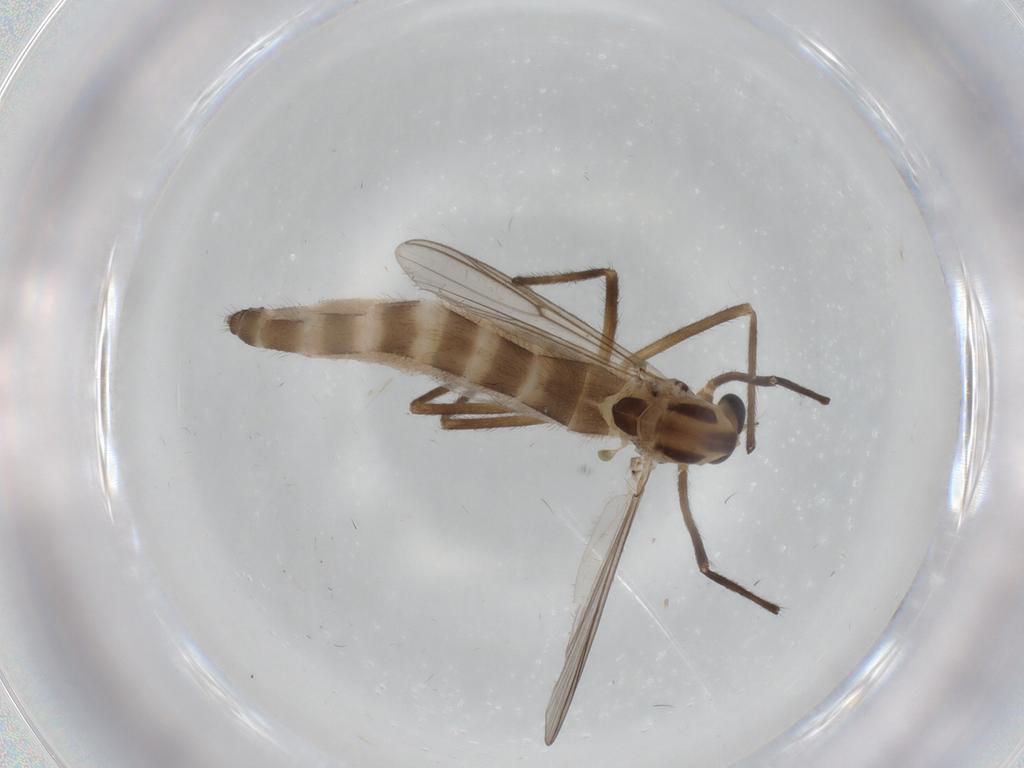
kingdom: Animalia
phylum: Arthropoda
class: Insecta
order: Diptera
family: Chironomidae
